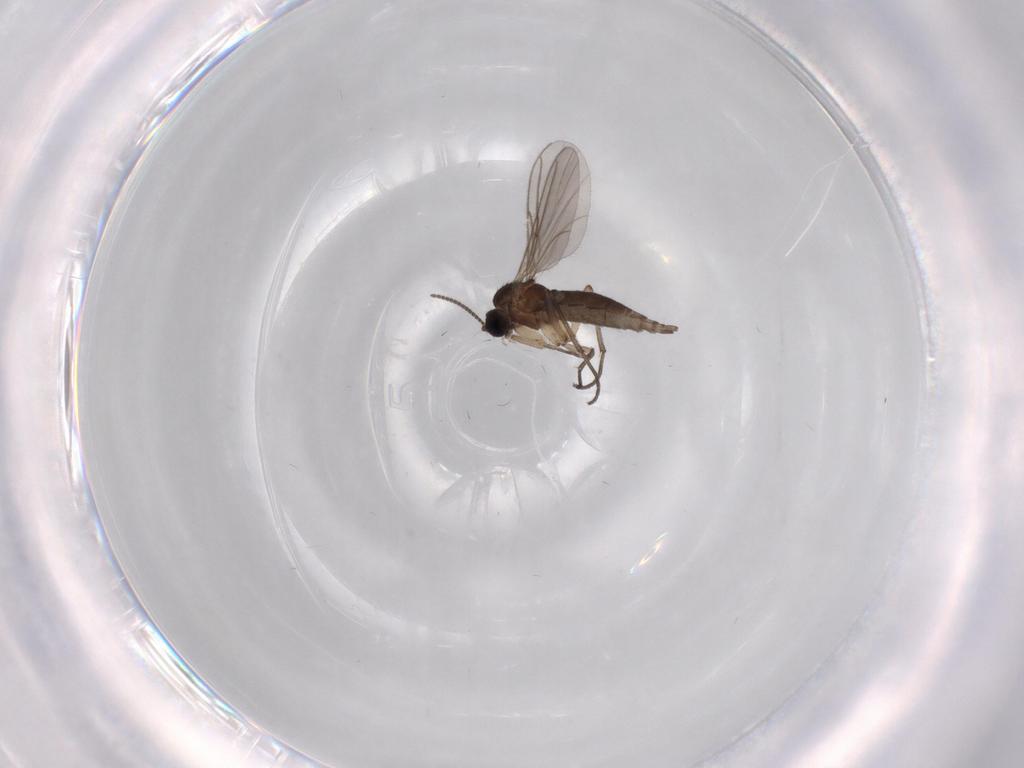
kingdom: Animalia
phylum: Arthropoda
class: Insecta
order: Diptera
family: Sciaridae
